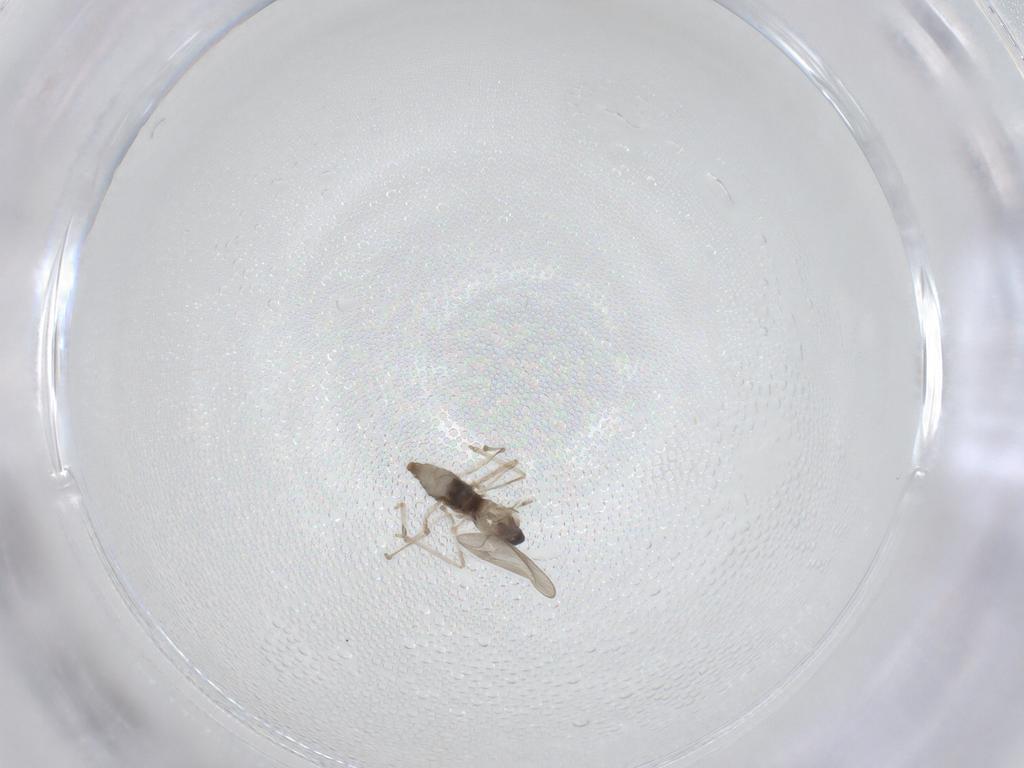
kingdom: Animalia
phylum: Arthropoda
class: Insecta
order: Diptera
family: Cecidomyiidae
